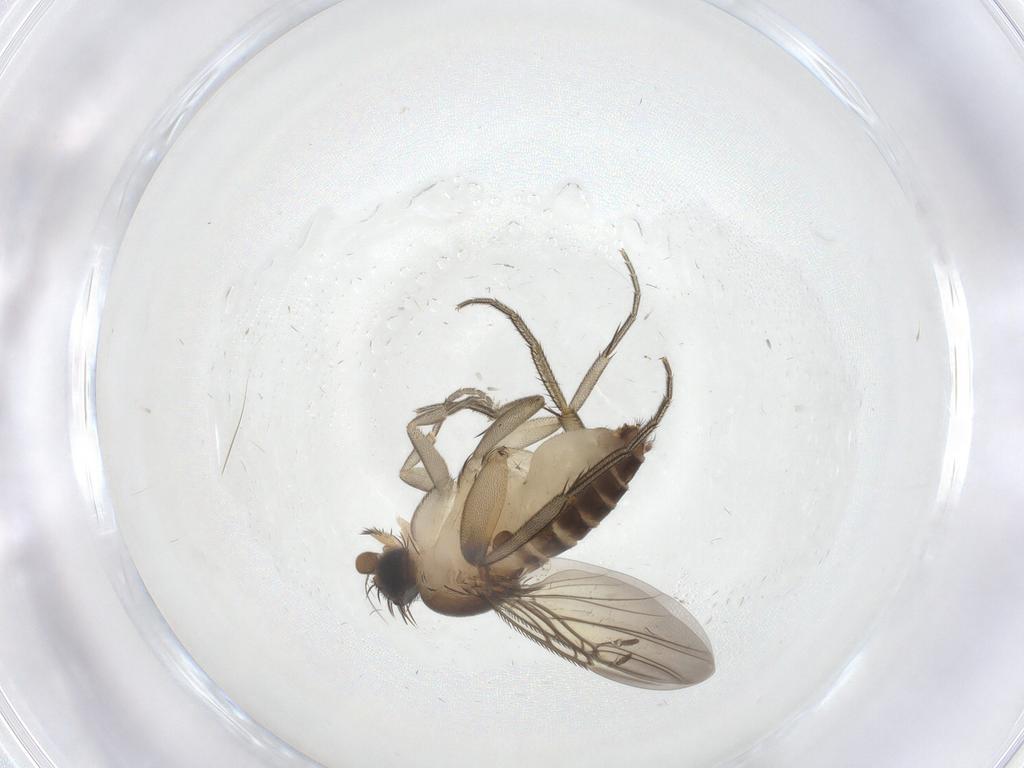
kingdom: Animalia
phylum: Arthropoda
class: Insecta
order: Diptera
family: Phoridae
